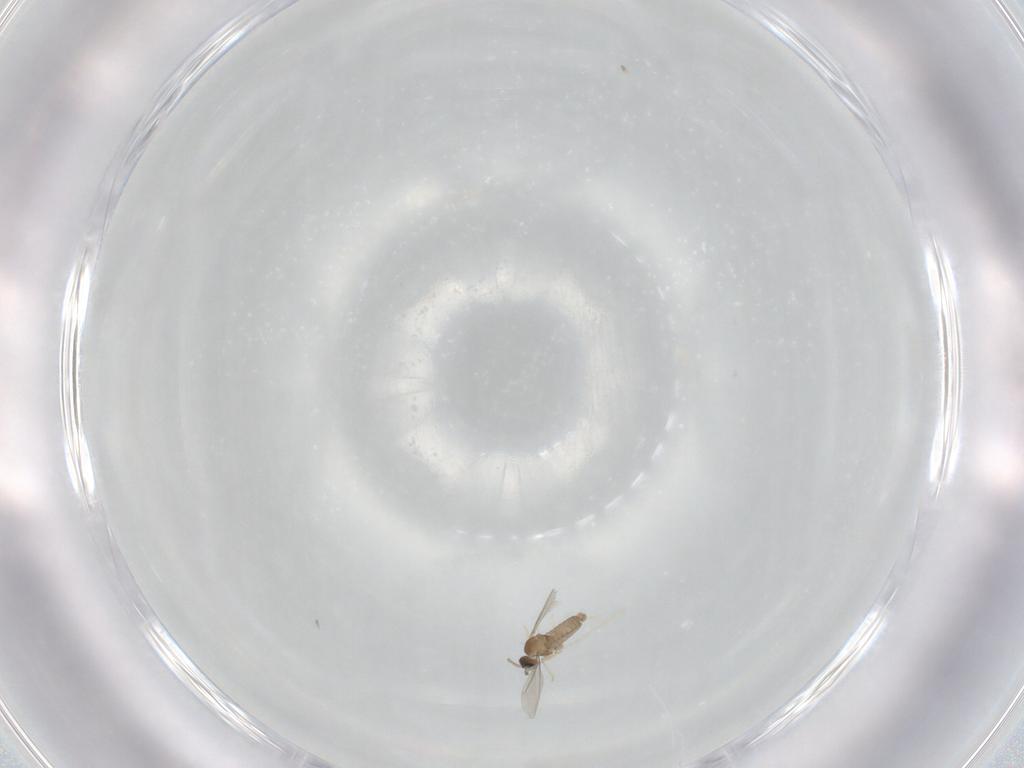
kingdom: Animalia
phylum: Arthropoda
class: Insecta
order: Diptera
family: Cecidomyiidae
